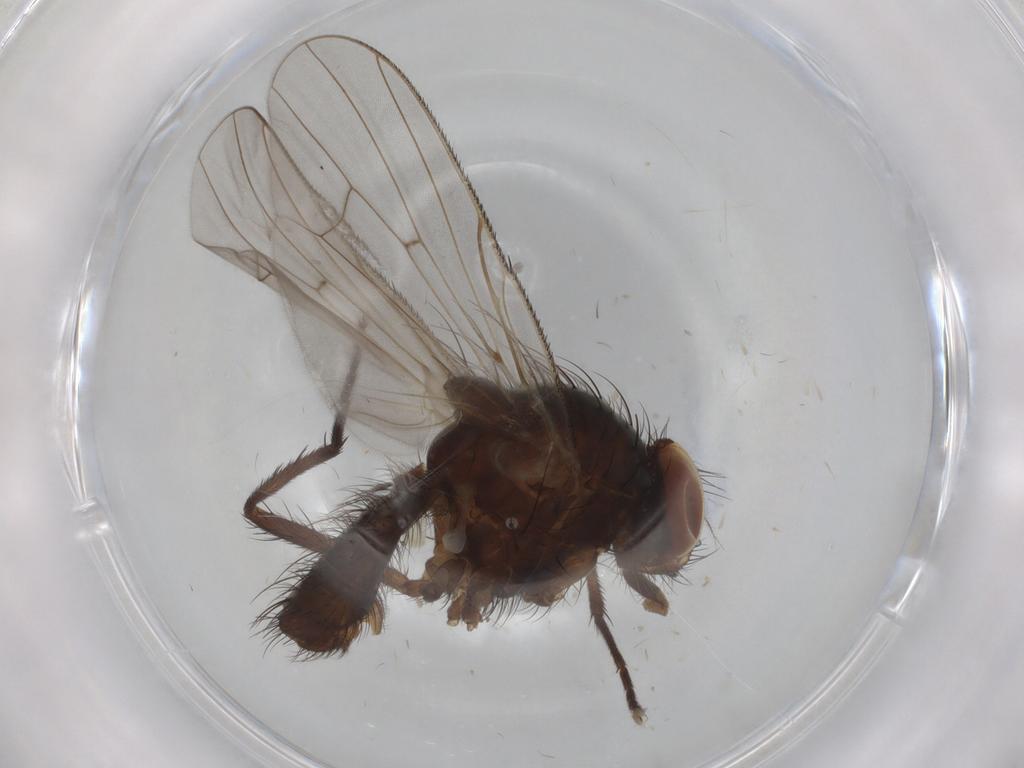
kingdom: Animalia
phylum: Arthropoda
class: Insecta
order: Diptera
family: Anthomyiidae
